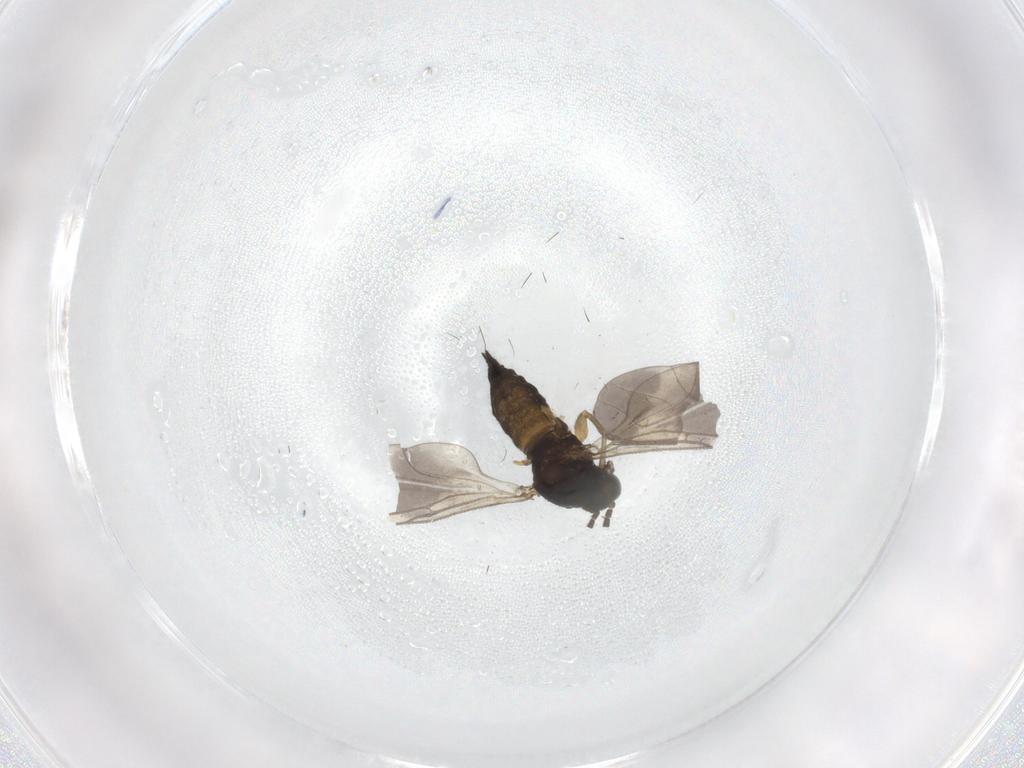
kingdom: Animalia
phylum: Arthropoda
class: Insecta
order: Diptera
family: Sciaridae
